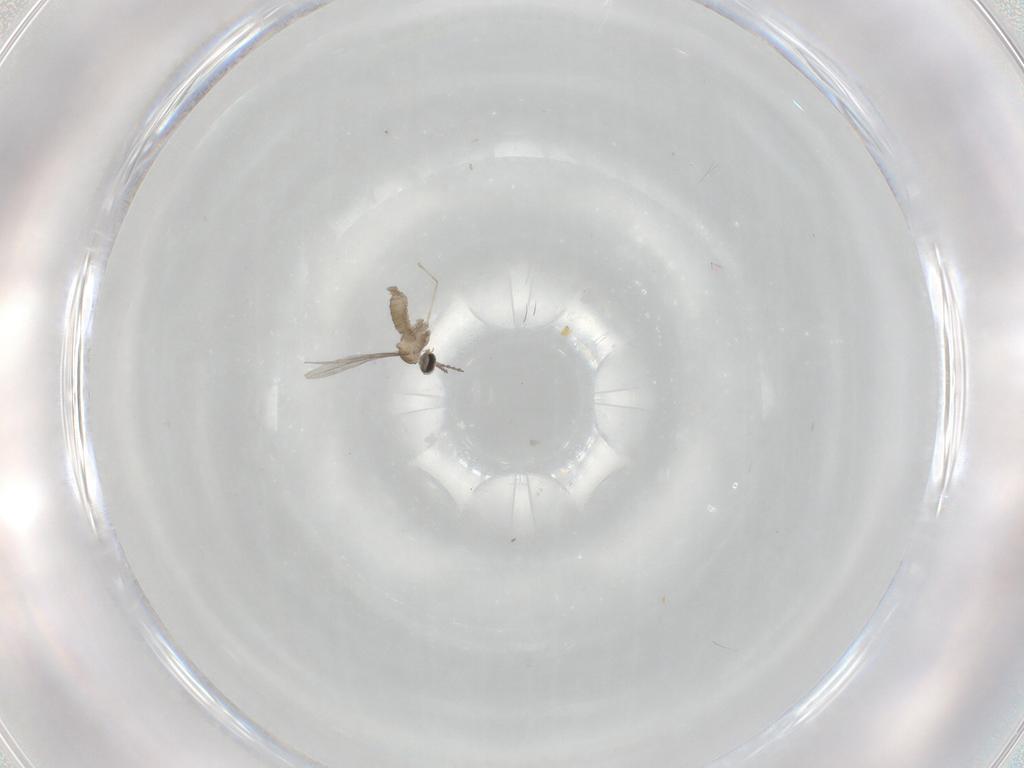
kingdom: Animalia
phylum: Arthropoda
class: Insecta
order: Diptera
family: Cecidomyiidae
